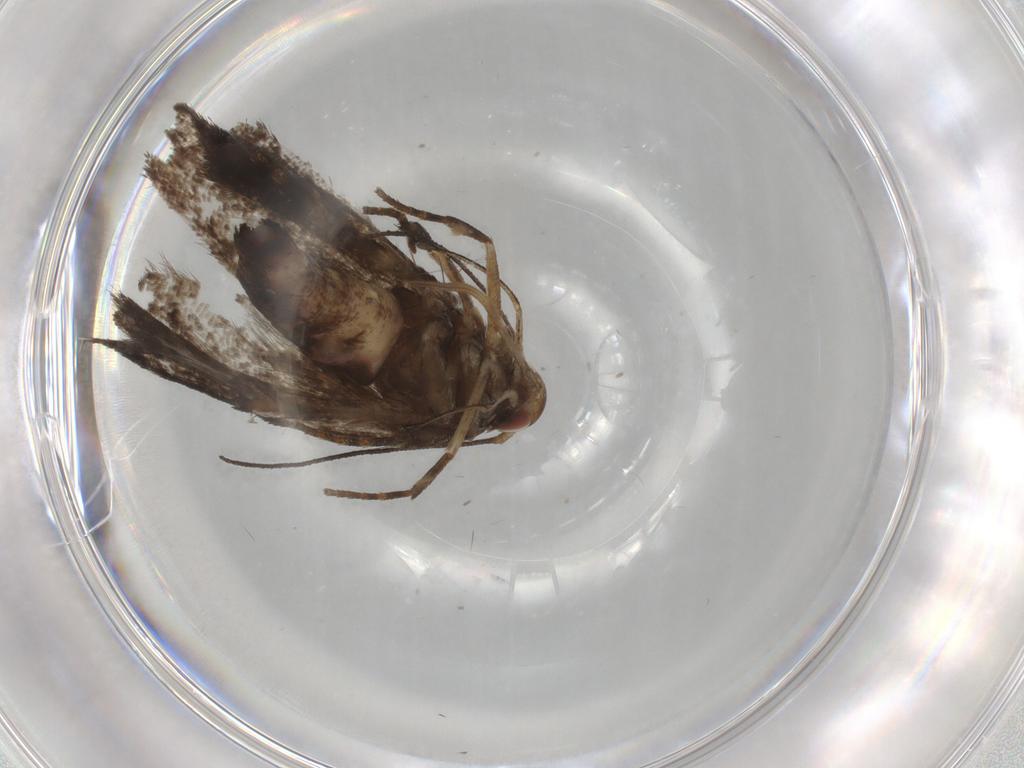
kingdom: Animalia
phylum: Arthropoda
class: Insecta
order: Lepidoptera
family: Gelechiidae
